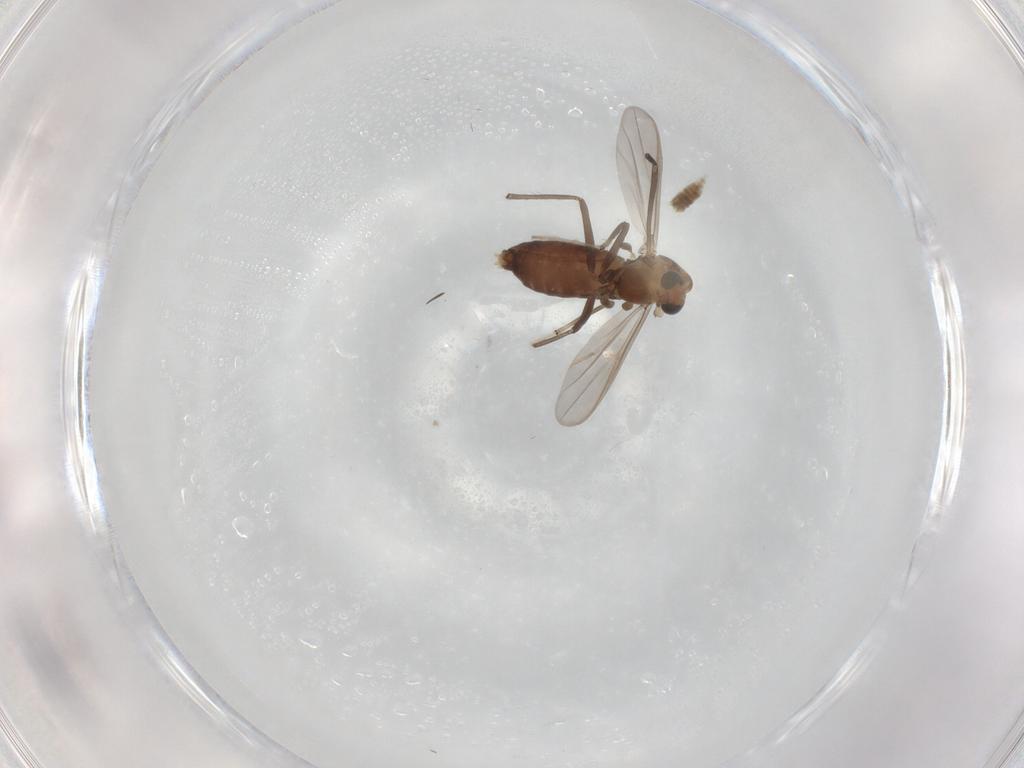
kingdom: Animalia
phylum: Arthropoda
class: Insecta
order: Diptera
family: Chironomidae
